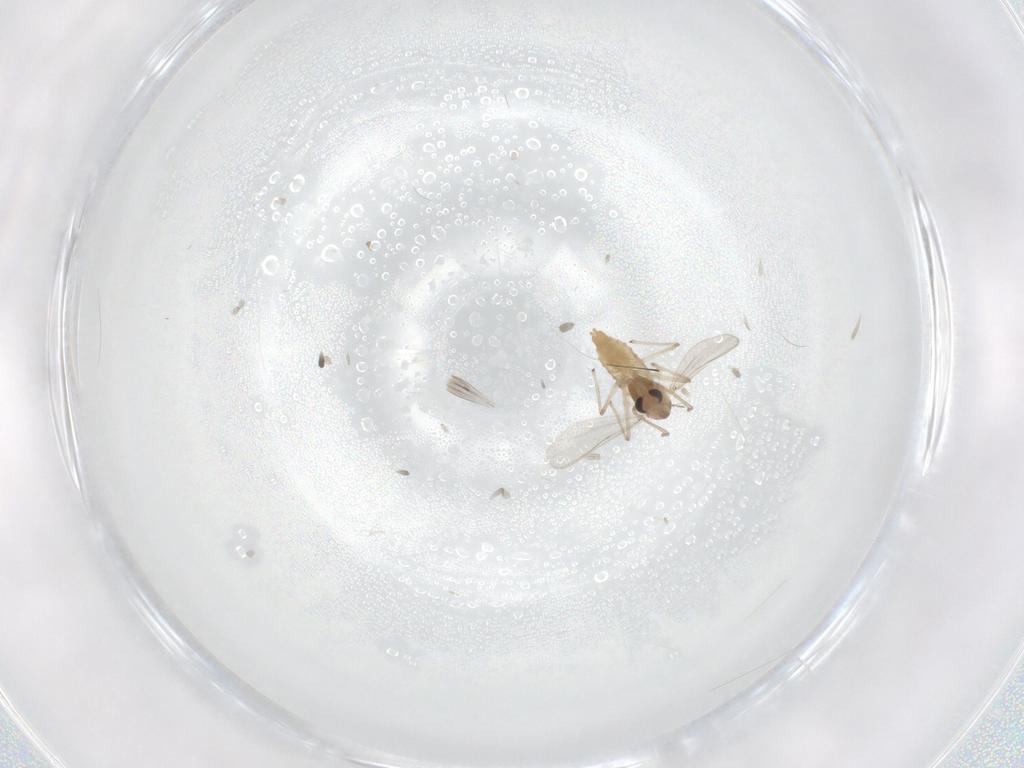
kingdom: Animalia
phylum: Arthropoda
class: Insecta
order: Diptera
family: Chironomidae
